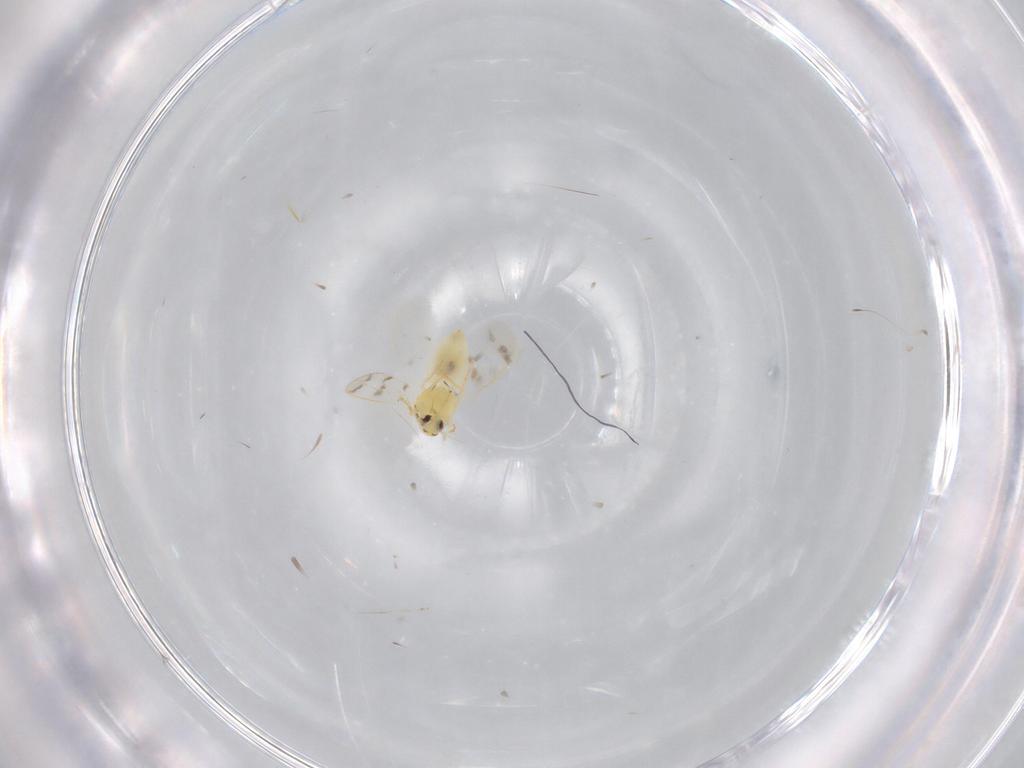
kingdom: Animalia
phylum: Arthropoda
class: Insecta
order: Hemiptera
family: Aleyrodidae
